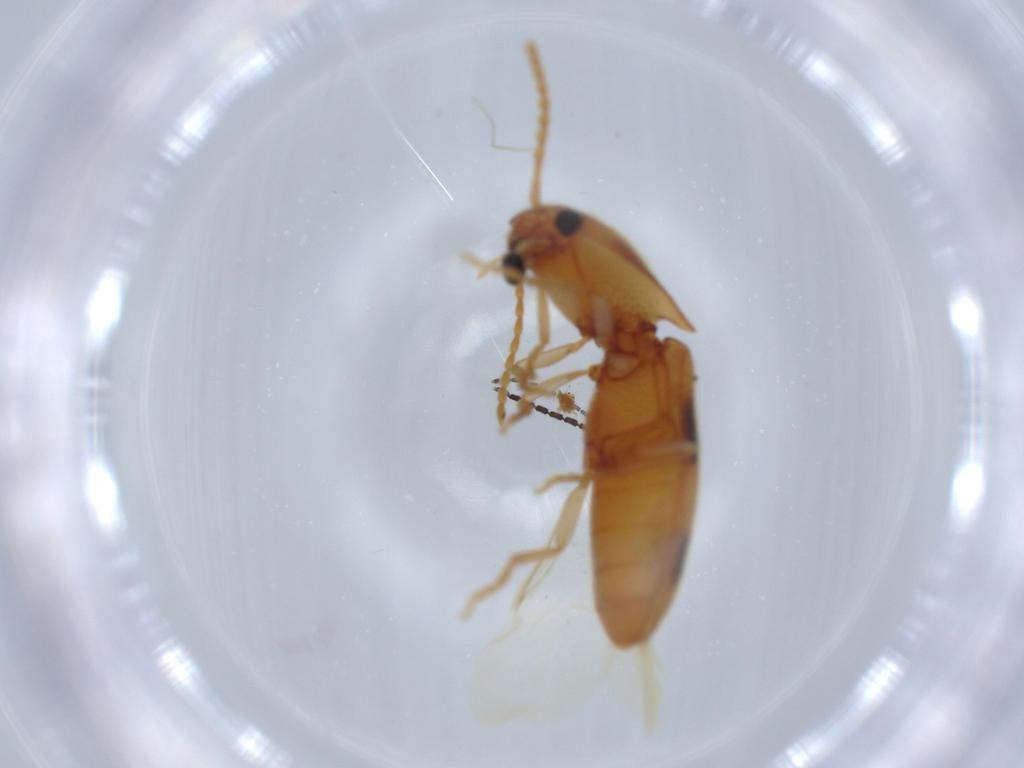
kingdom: Animalia
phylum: Arthropoda
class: Insecta
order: Coleoptera
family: Elateridae
